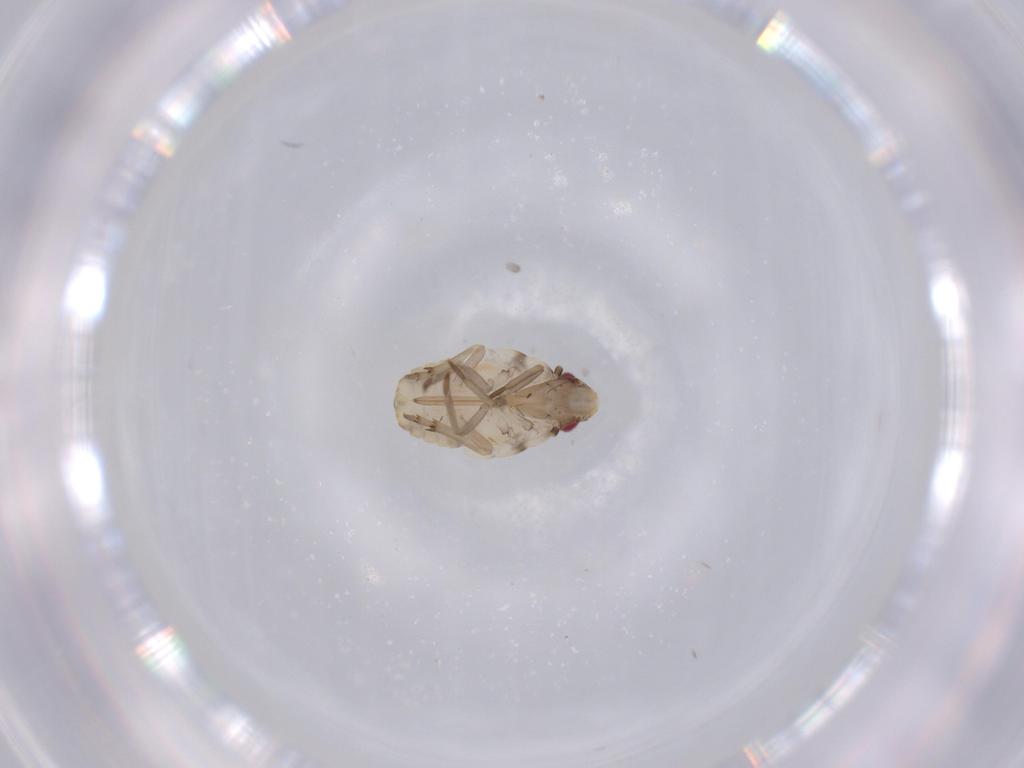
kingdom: Animalia
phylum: Arthropoda
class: Insecta
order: Hemiptera
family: Flatidae
